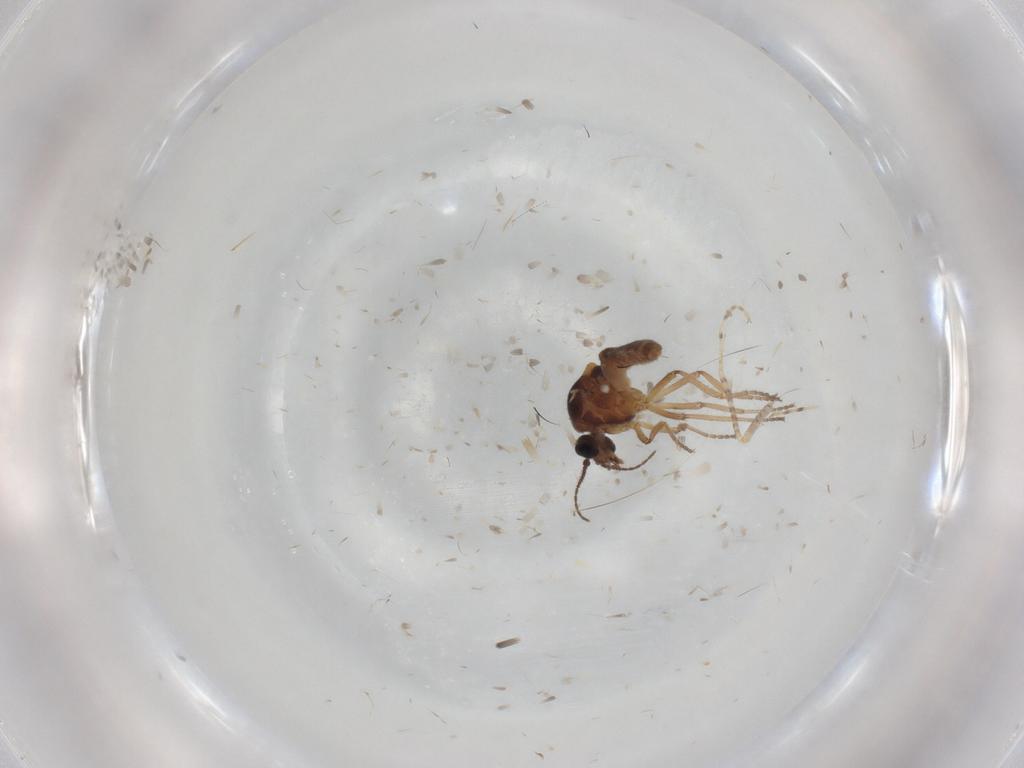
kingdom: Animalia
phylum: Arthropoda
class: Insecta
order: Diptera
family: Ceratopogonidae
